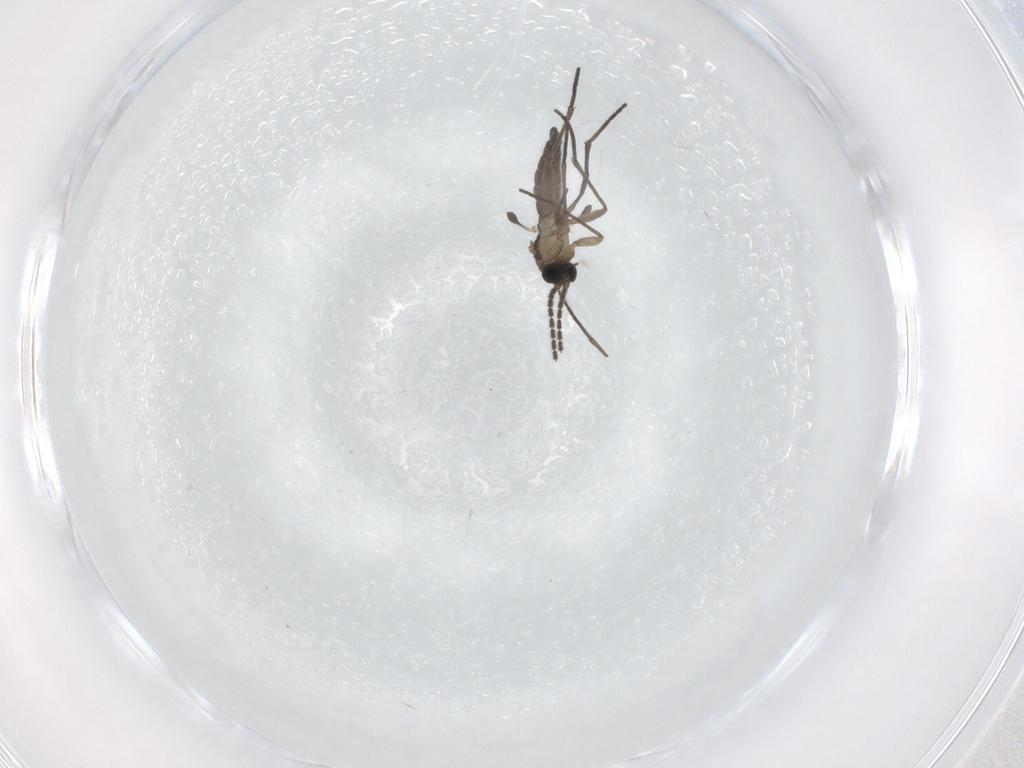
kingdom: Animalia
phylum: Arthropoda
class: Insecta
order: Diptera
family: Sciaridae
